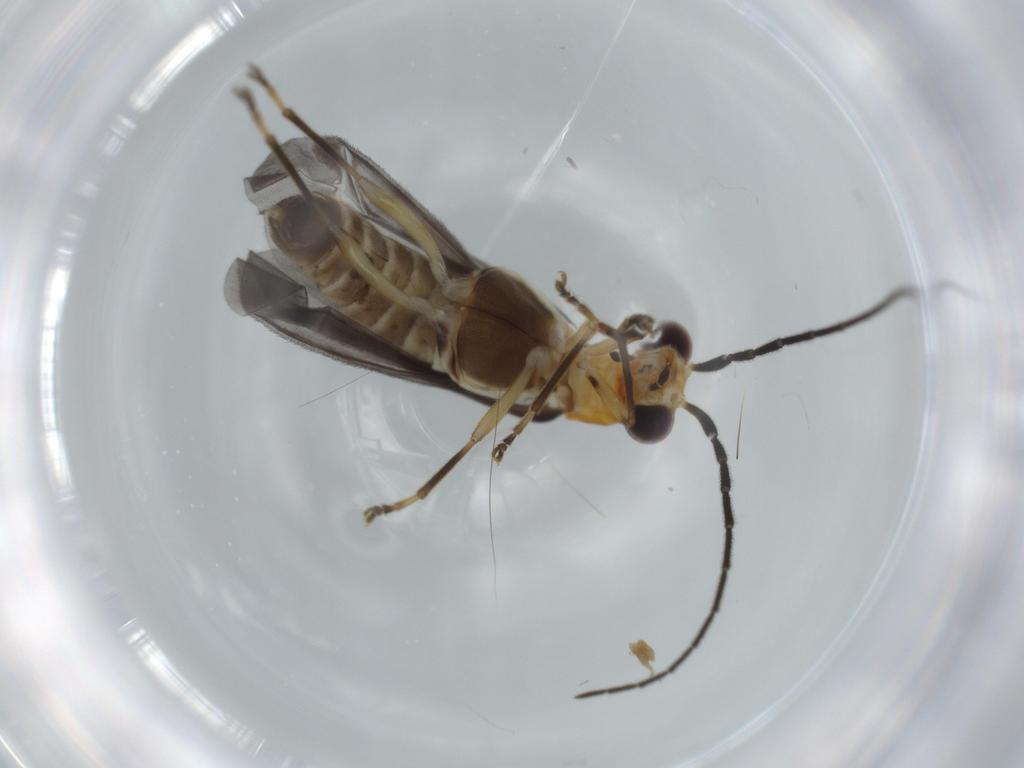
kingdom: Animalia
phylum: Arthropoda
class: Insecta
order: Coleoptera
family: Cantharidae
